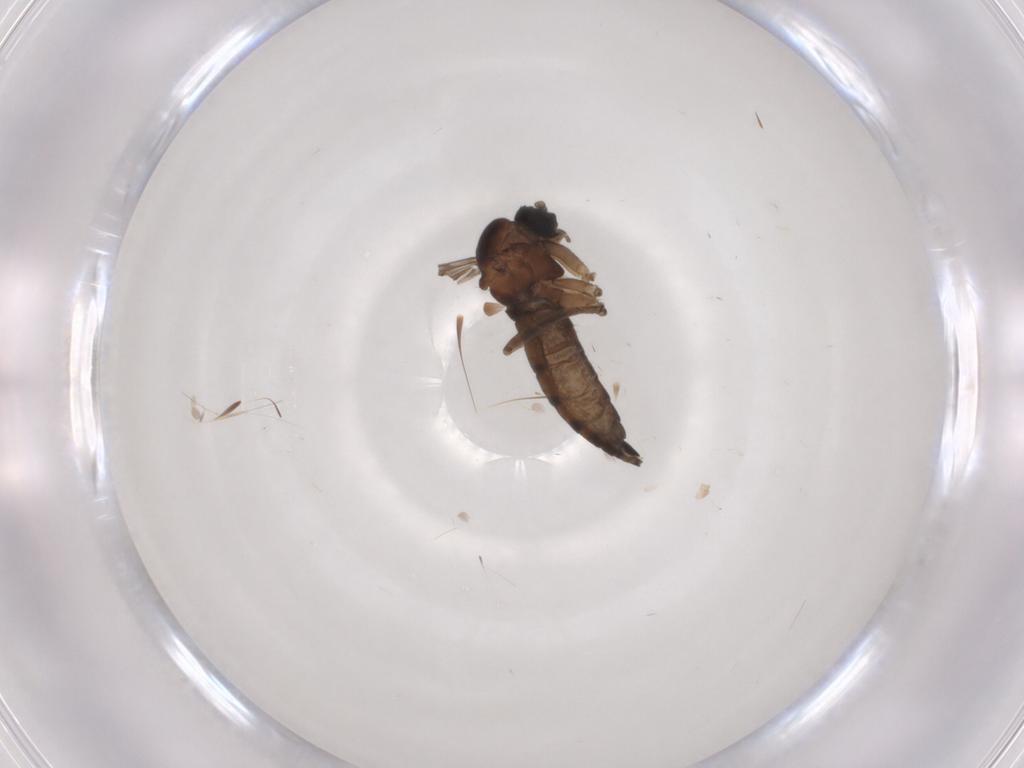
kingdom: Animalia
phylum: Arthropoda
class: Insecta
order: Diptera
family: Sciaridae
